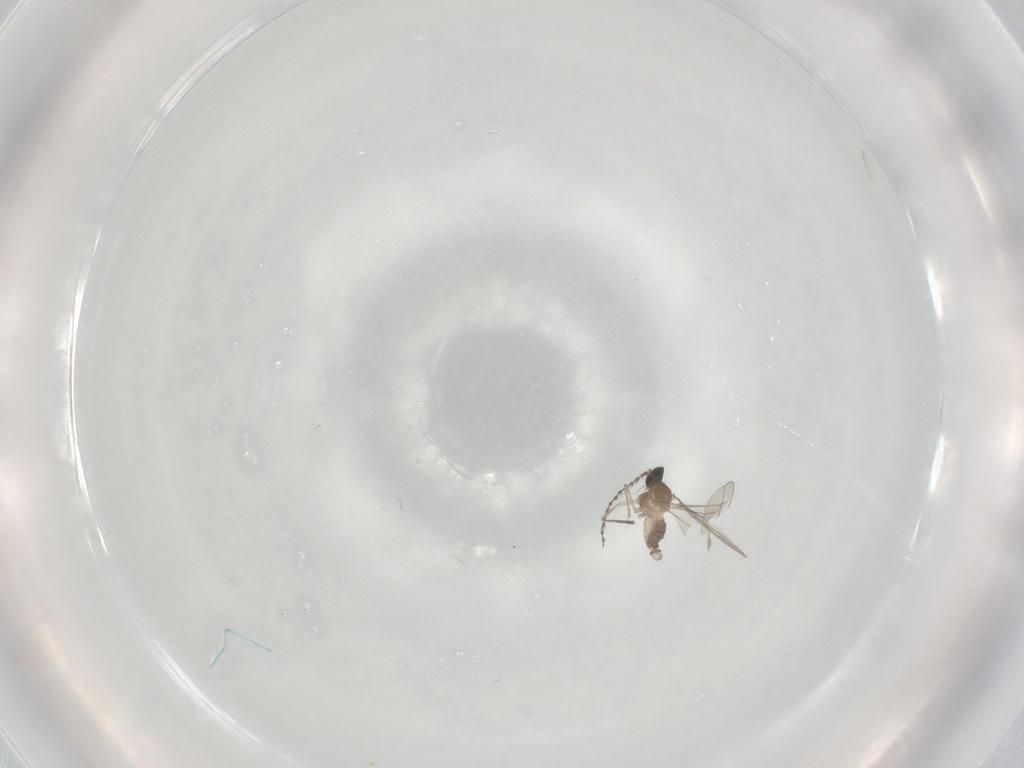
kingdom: Animalia
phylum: Arthropoda
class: Insecta
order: Diptera
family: Cecidomyiidae
